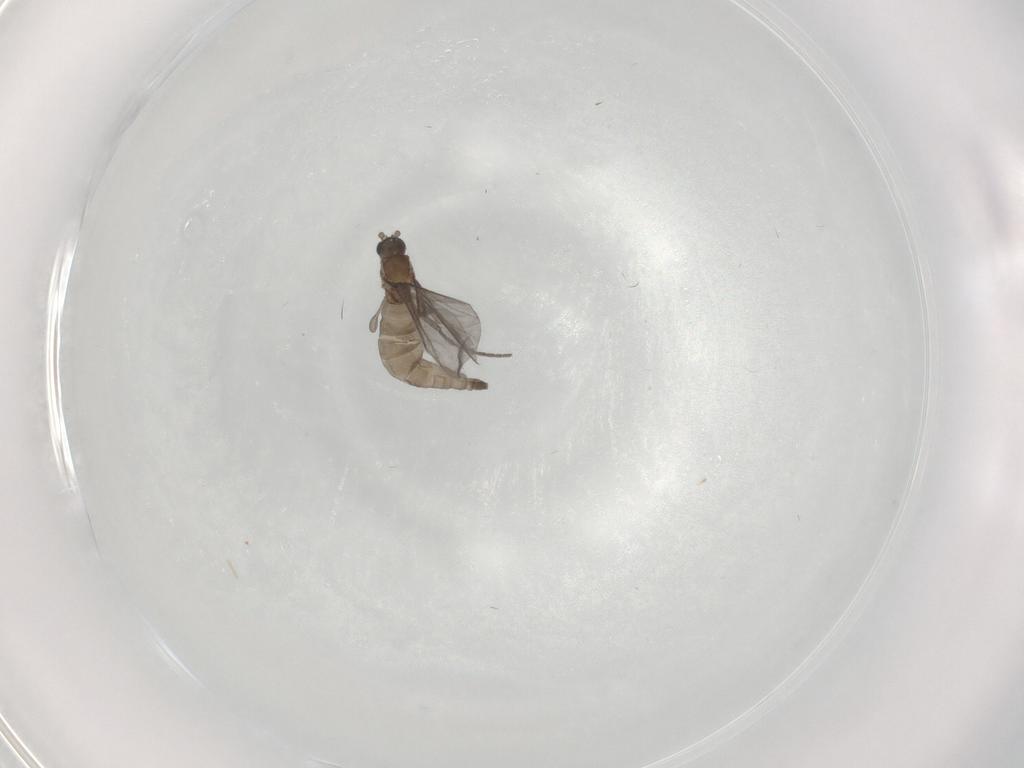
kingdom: Animalia
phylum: Arthropoda
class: Insecta
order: Diptera
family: Sciaridae
